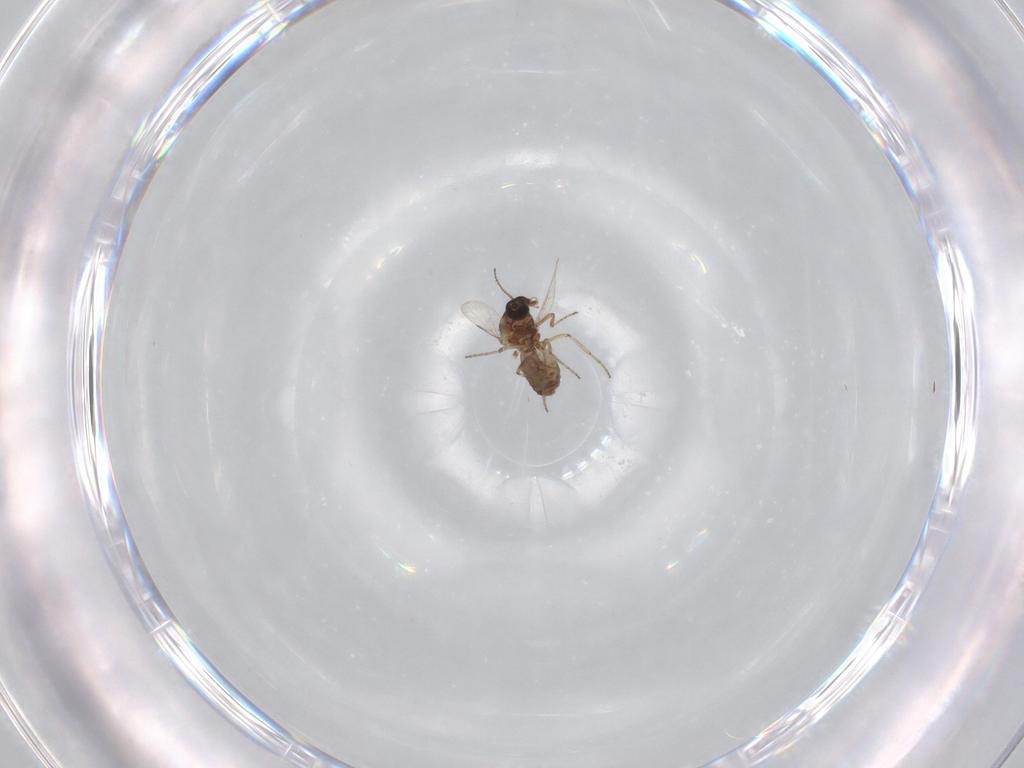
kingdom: Animalia
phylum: Arthropoda
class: Insecta
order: Diptera
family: Ceratopogonidae
